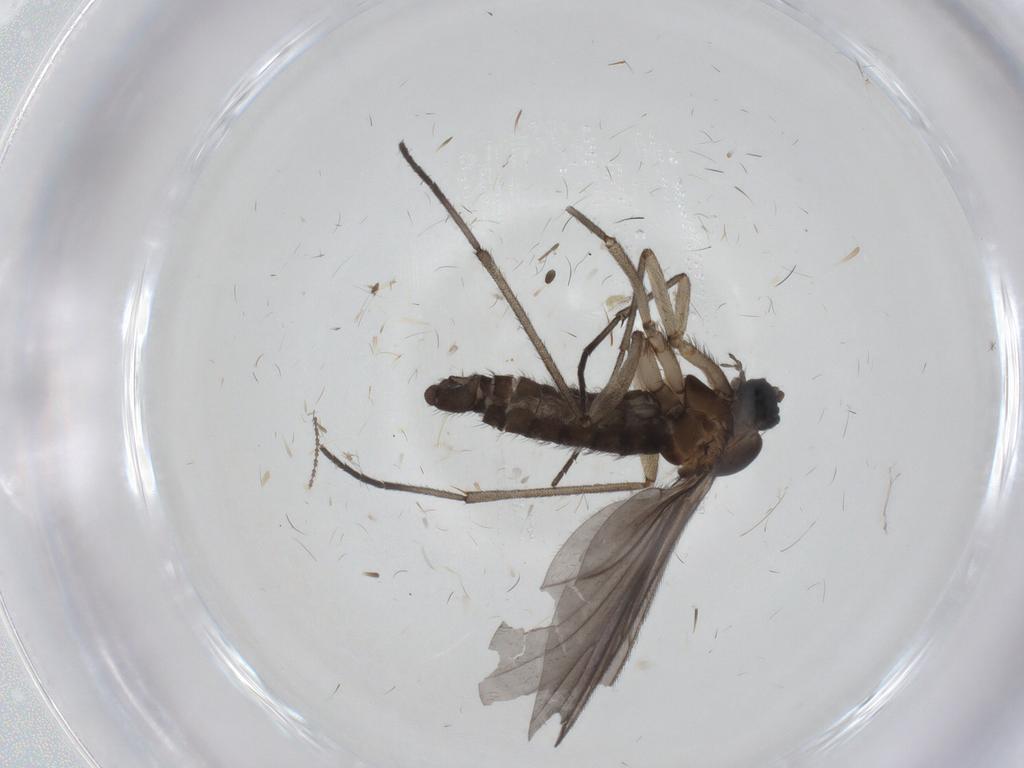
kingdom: Animalia
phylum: Arthropoda
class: Insecta
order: Diptera
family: Sciaridae
